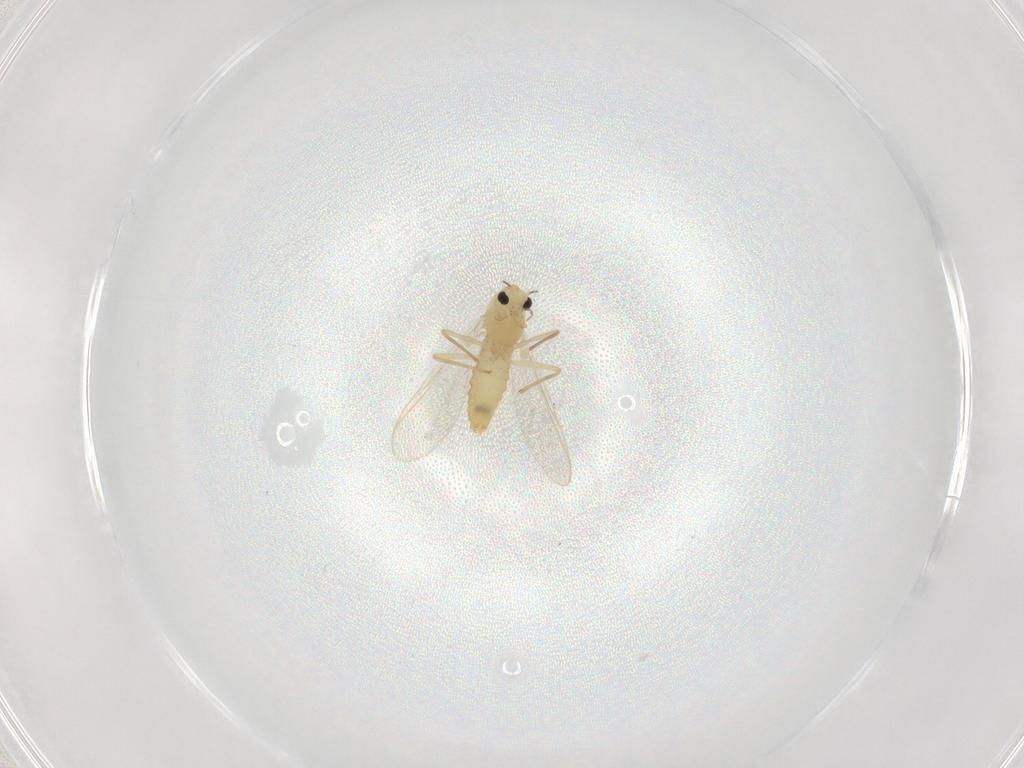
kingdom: Animalia
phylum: Arthropoda
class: Insecta
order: Diptera
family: Chironomidae
